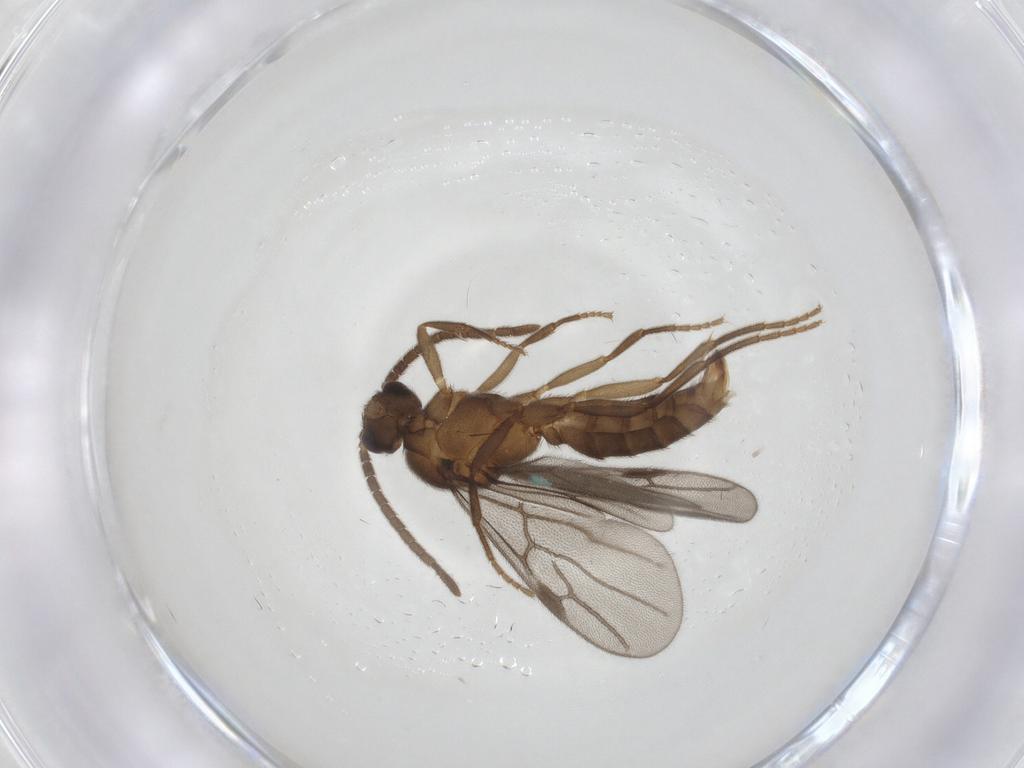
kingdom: Animalia
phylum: Arthropoda
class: Insecta
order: Hymenoptera
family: Formicidae
